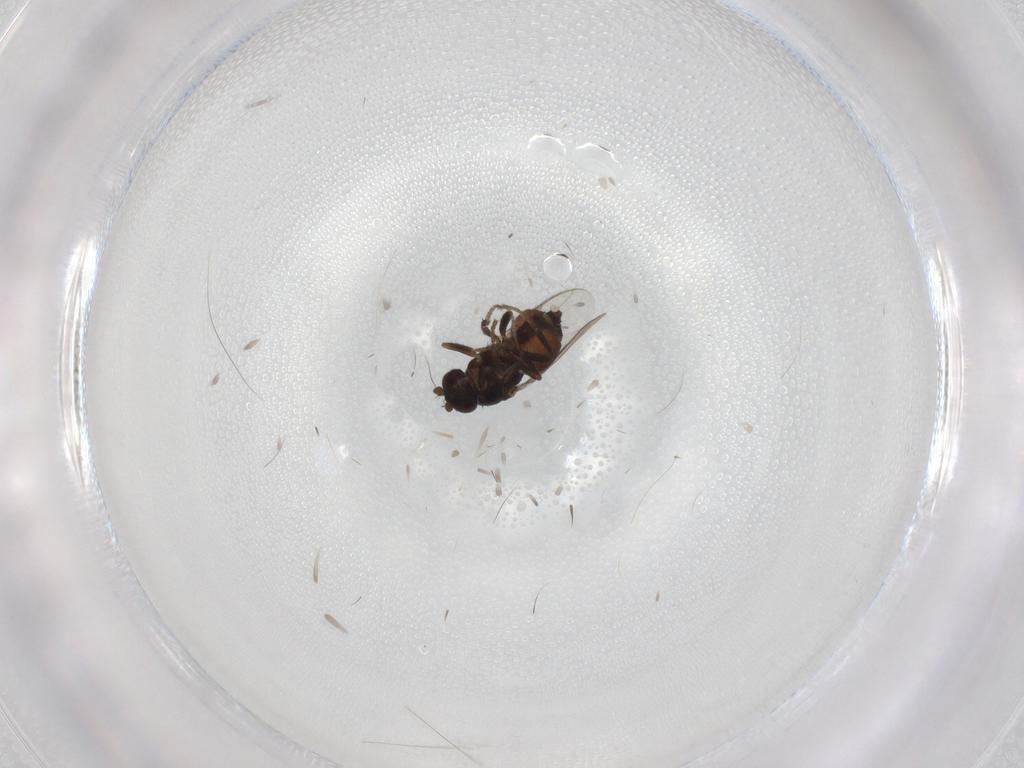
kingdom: Animalia
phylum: Arthropoda
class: Insecta
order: Diptera
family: Sphaeroceridae
